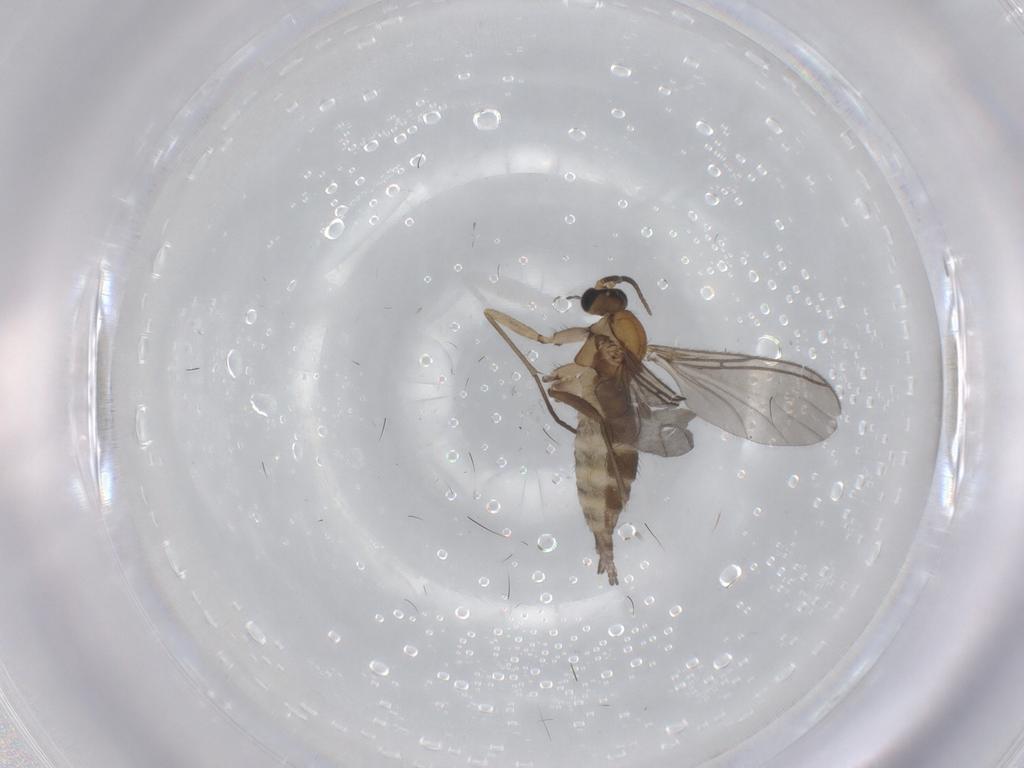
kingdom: Animalia
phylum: Arthropoda
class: Insecta
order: Diptera
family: Sciaridae
